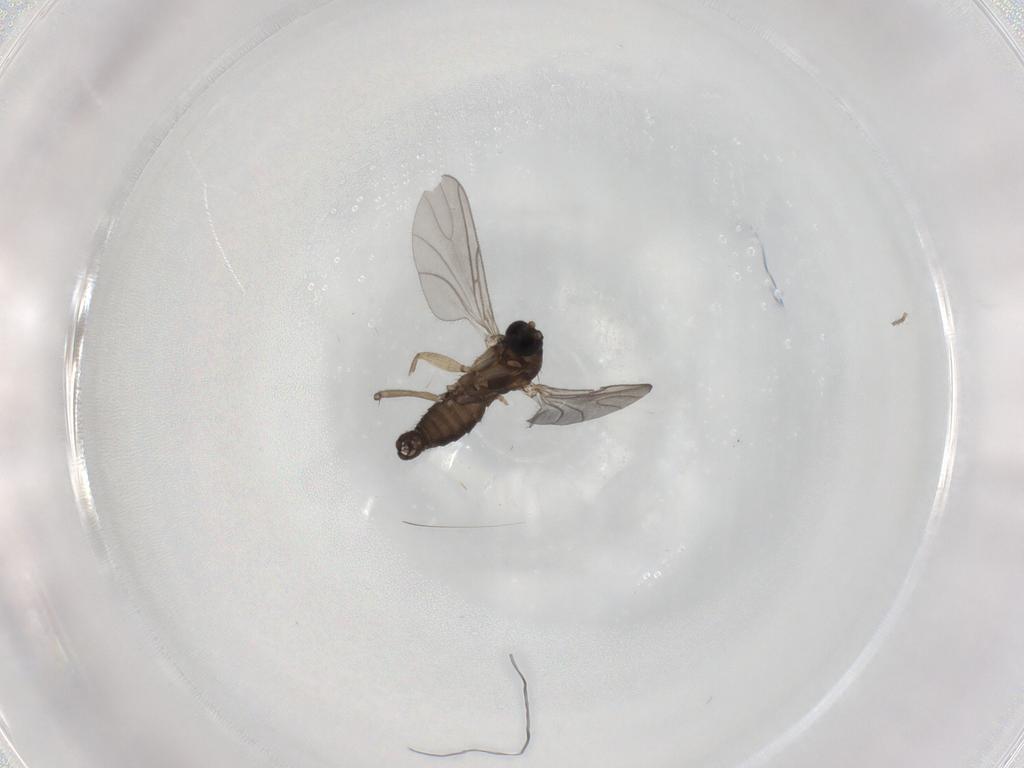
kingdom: Animalia
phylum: Arthropoda
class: Insecta
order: Diptera
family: Sciaridae
